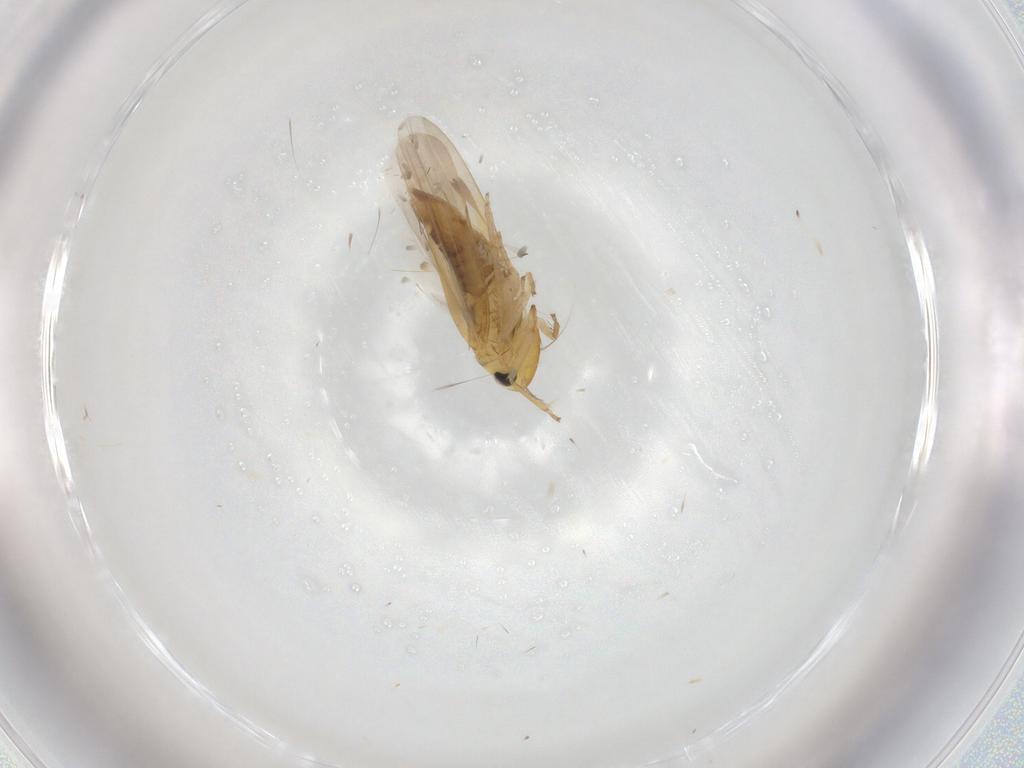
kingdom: Animalia
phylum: Arthropoda
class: Insecta
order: Hemiptera
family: Cicadellidae
